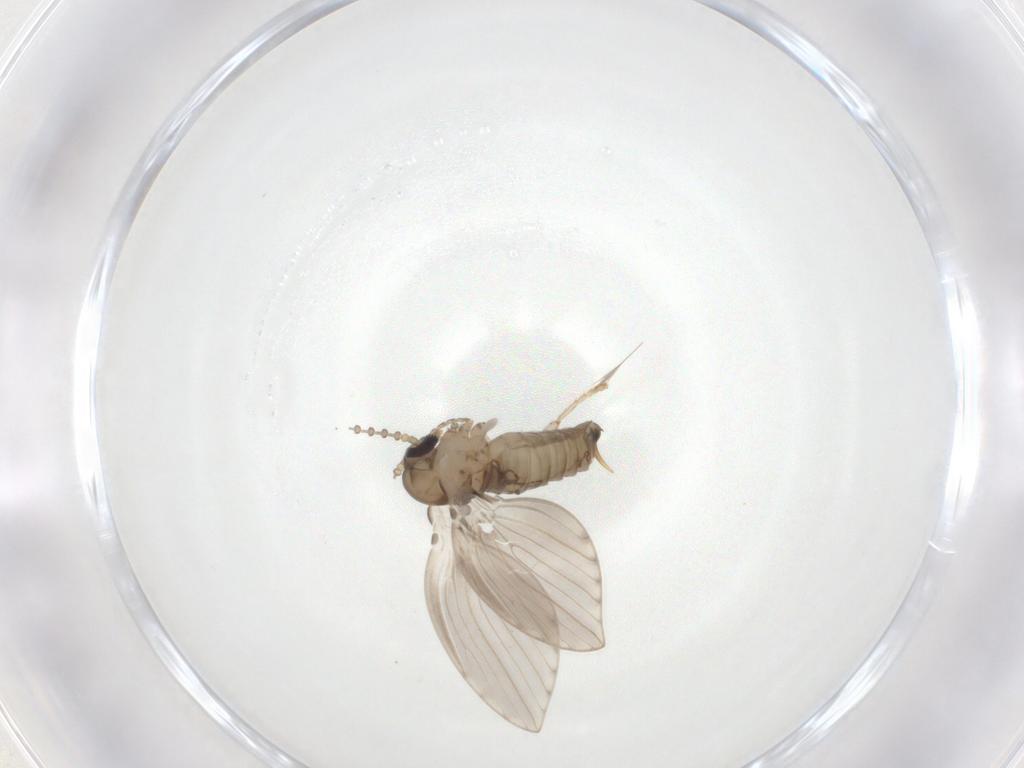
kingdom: Animalia
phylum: Arthropoda
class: Insecta
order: Diptera
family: Psychodidae
